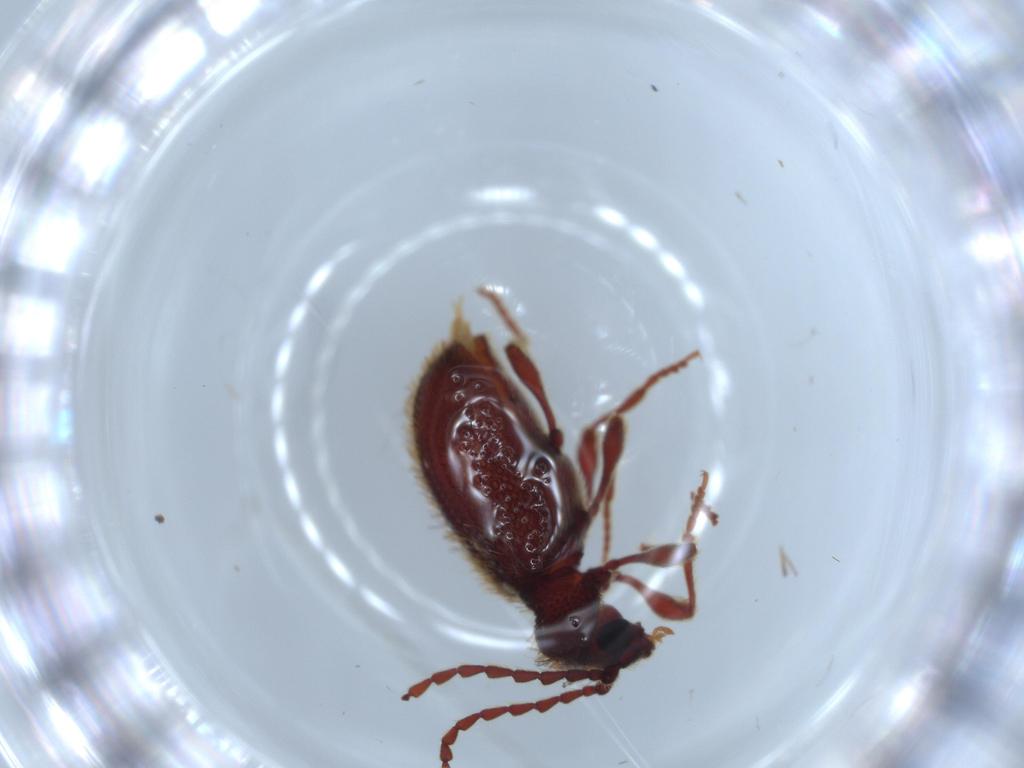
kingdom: Animalia
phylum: Arthropoda
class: Insecta
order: Coleoptera
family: Ptinidae
